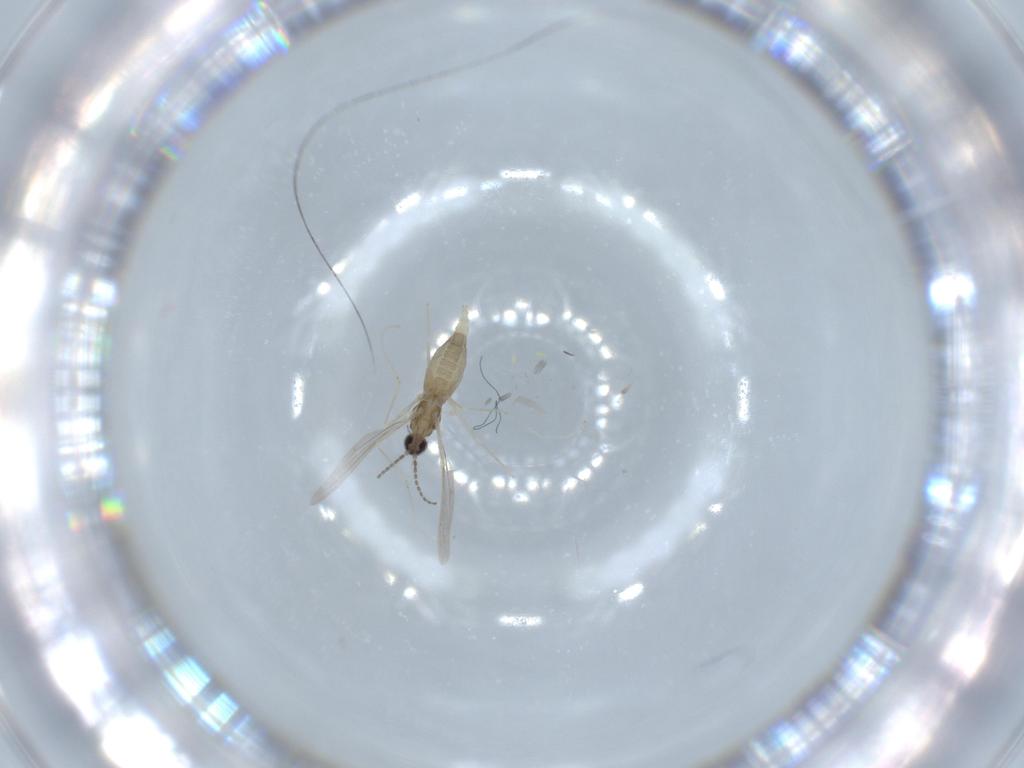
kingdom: Animalia
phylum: Arthropoda
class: Insecta
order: Diptera
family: Cecidomyiidae
